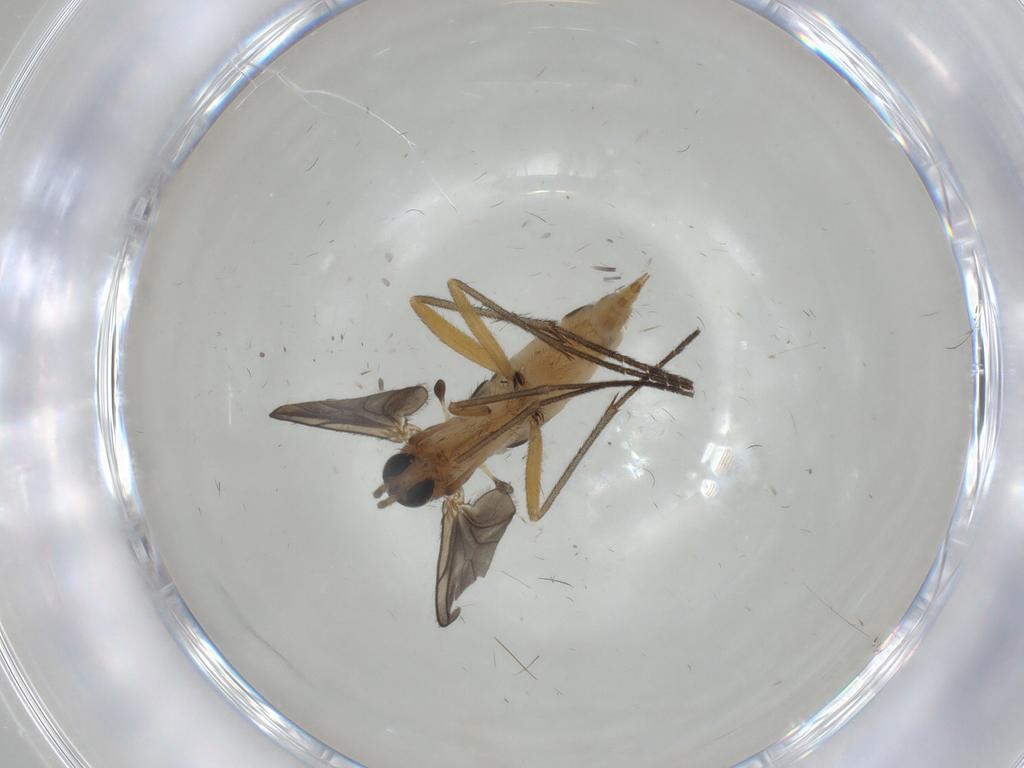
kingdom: Animalia
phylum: Arthropoda
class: Insecta
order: Diptera
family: Sciaridae
